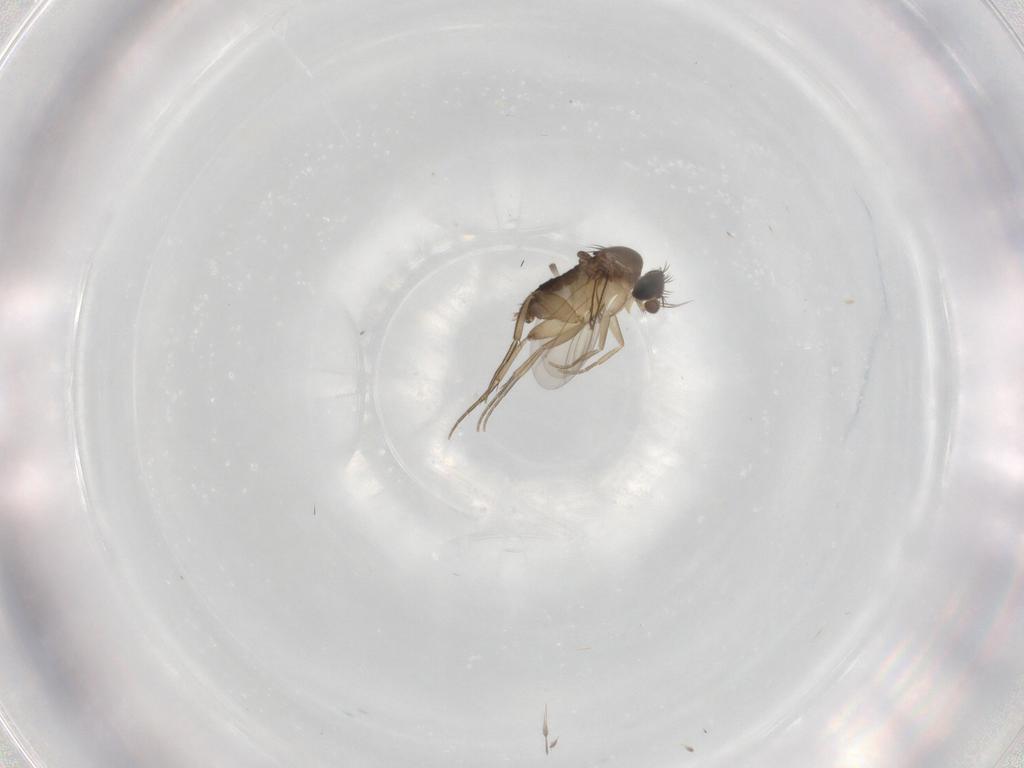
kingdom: Animalia
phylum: Arthropoda
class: Insecta
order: Diptera
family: Phoridae
